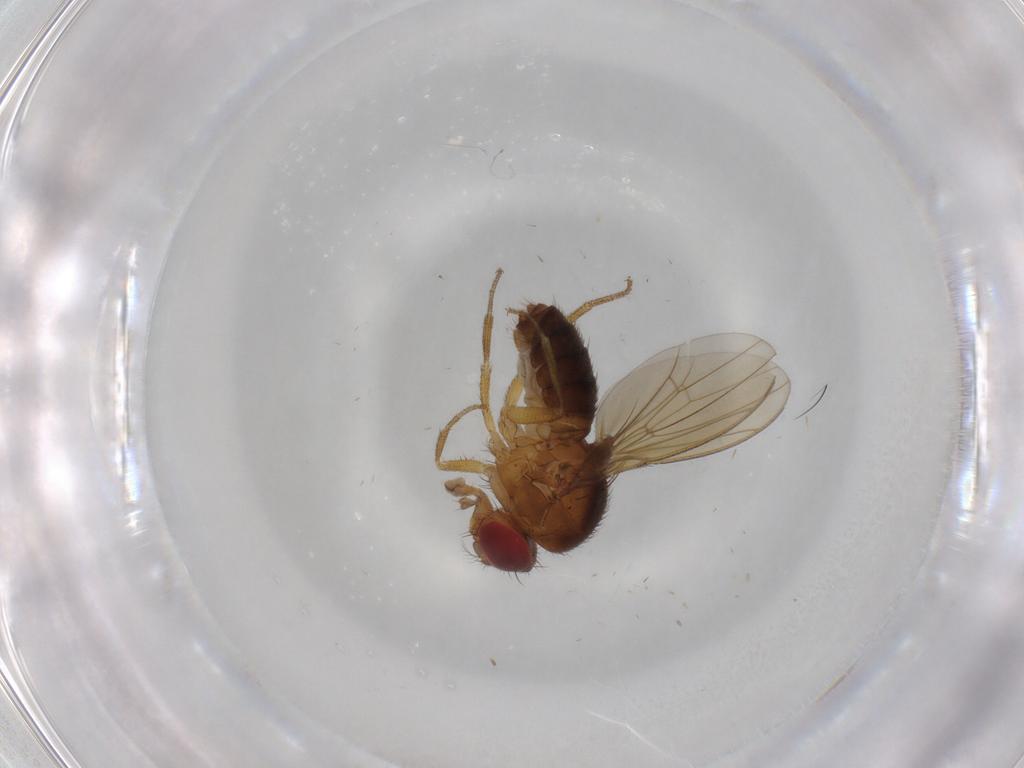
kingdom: Animalia
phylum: Arthropoda
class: Insecta
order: Diptera
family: Drosophilidae
